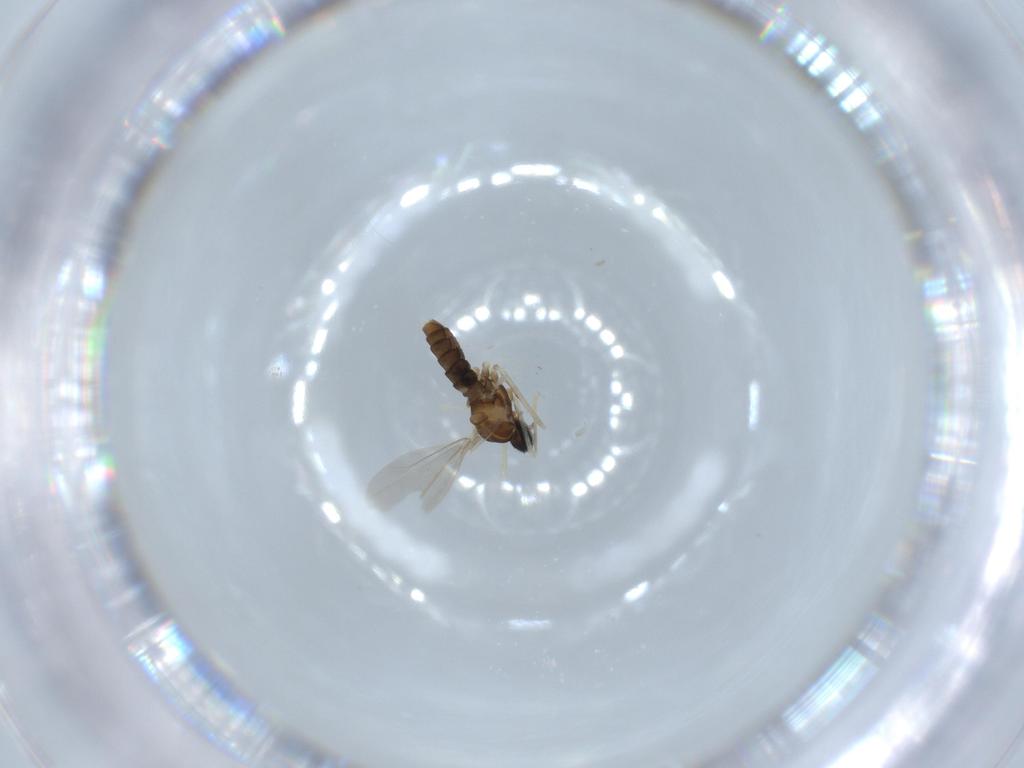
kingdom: Animalia
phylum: Arthropoda
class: Insecta
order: Diptera
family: Cecidomyiidae
